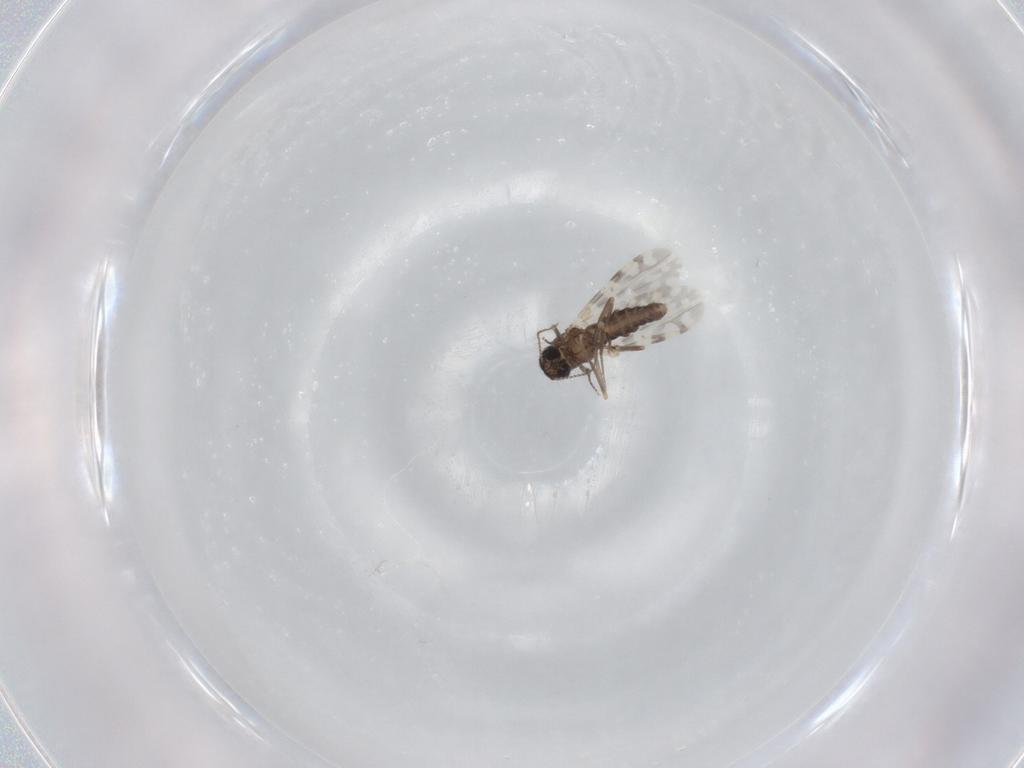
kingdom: Animalia
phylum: Arthropoda
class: Insecta
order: Diptera
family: Ceratopogonidae
